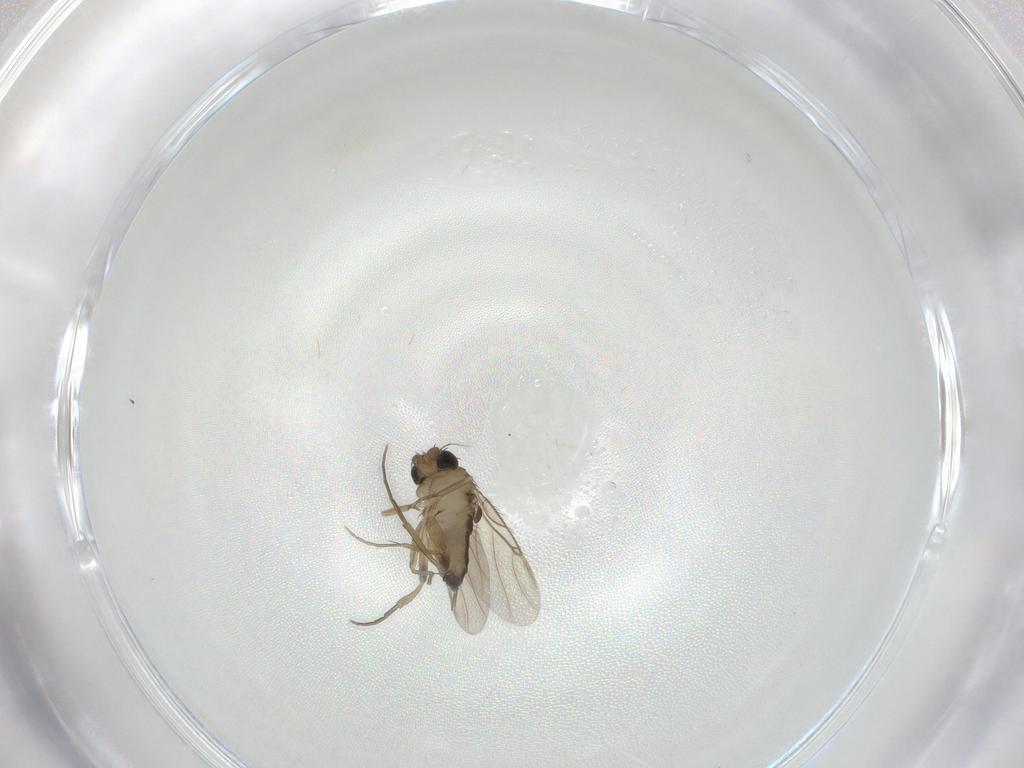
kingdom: Animalia
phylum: Arthropoda
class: Insecta
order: Diptera
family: Phoridae
